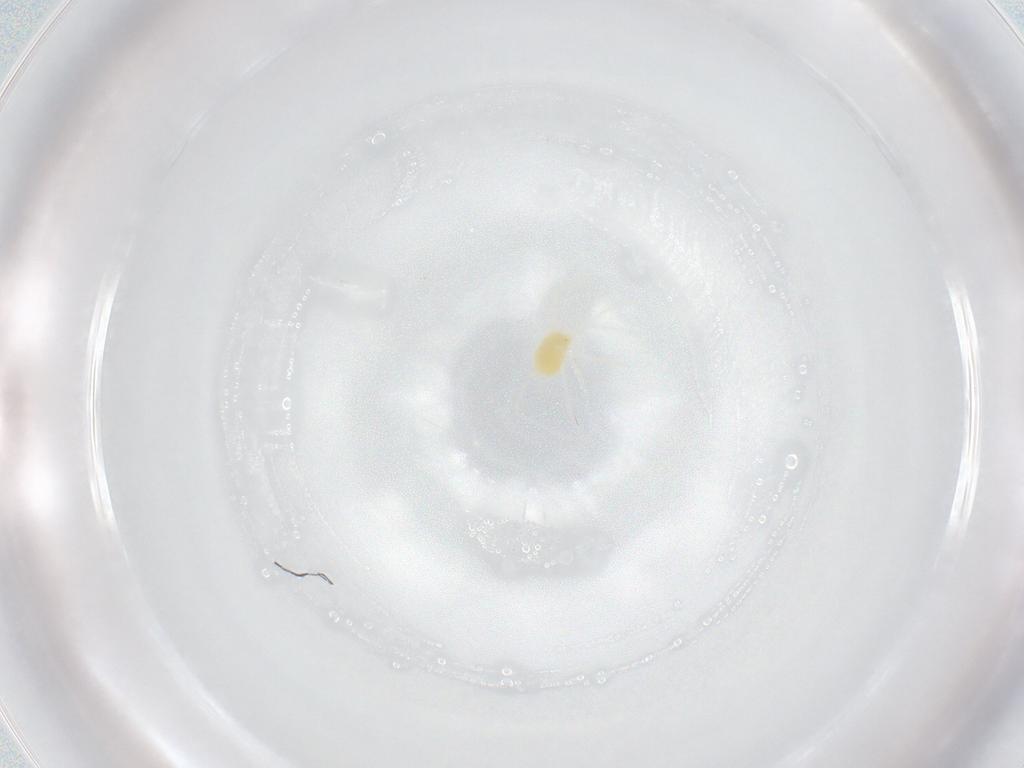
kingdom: Animalia
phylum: Arthropoda
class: Arachnida
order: Trombidiformes
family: Tetranychidae
